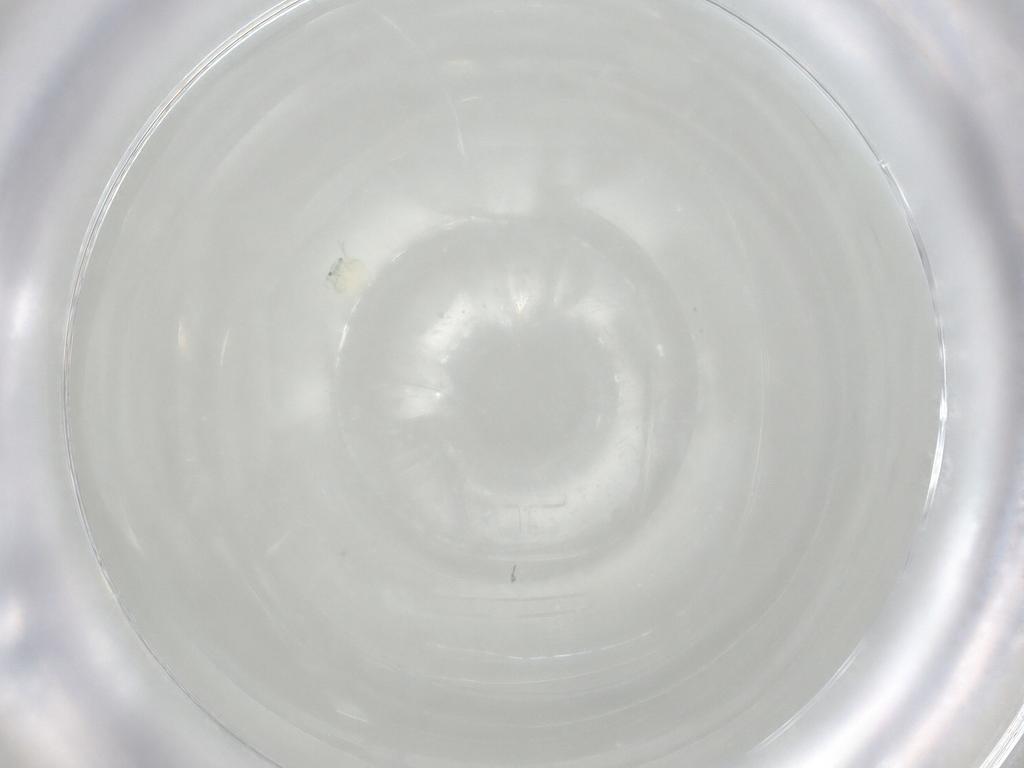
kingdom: Animalia
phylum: Arthropoda
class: Arachnida
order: Trombidiformes
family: Arrenuridae
